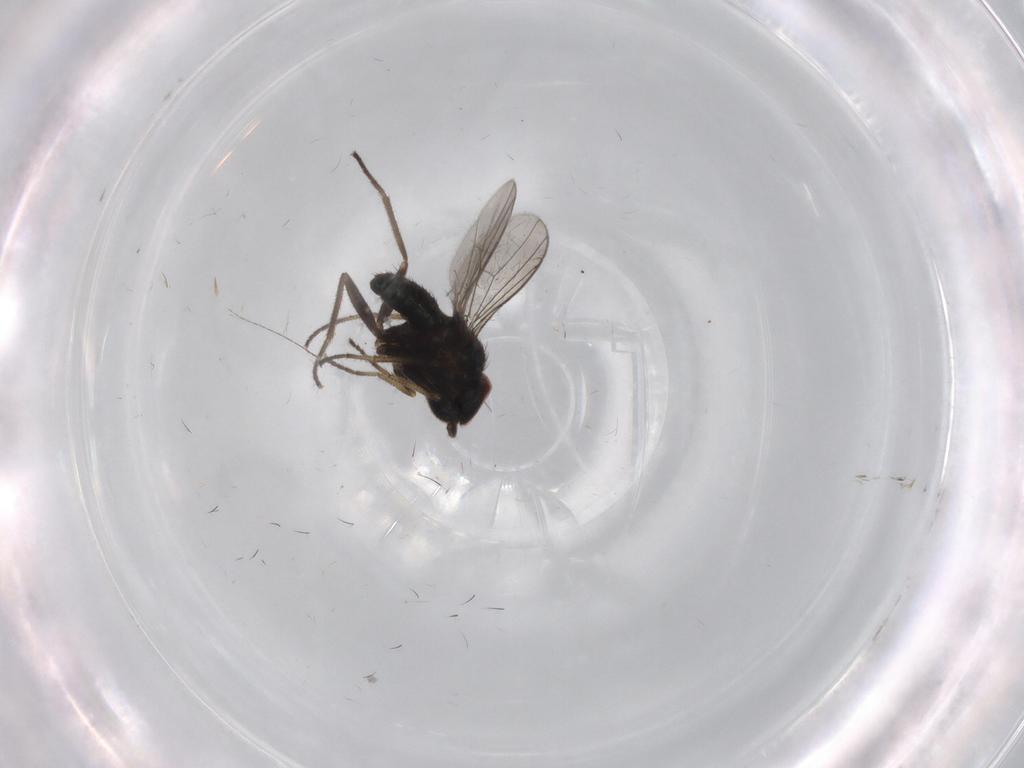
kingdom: Animalia
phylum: Arthropoda
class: Insecta
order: Diptera
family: Dolichopodidae
